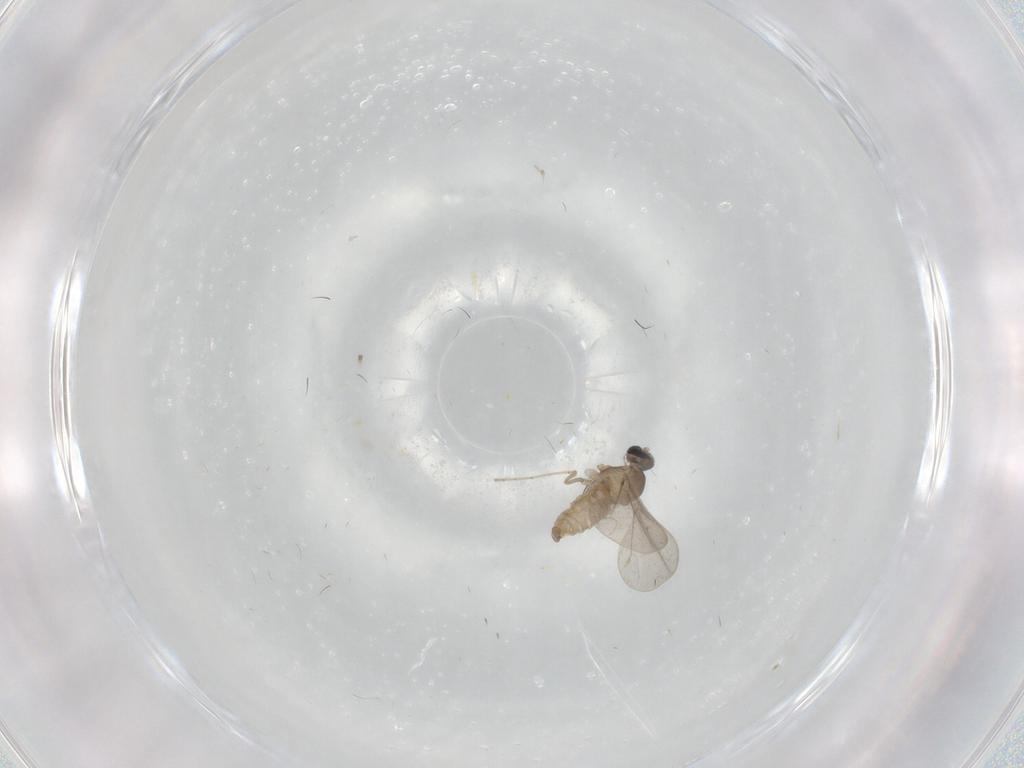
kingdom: Animalia
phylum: Arthropoda
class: Insecta
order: Diptera
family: Cecidomyiidae
